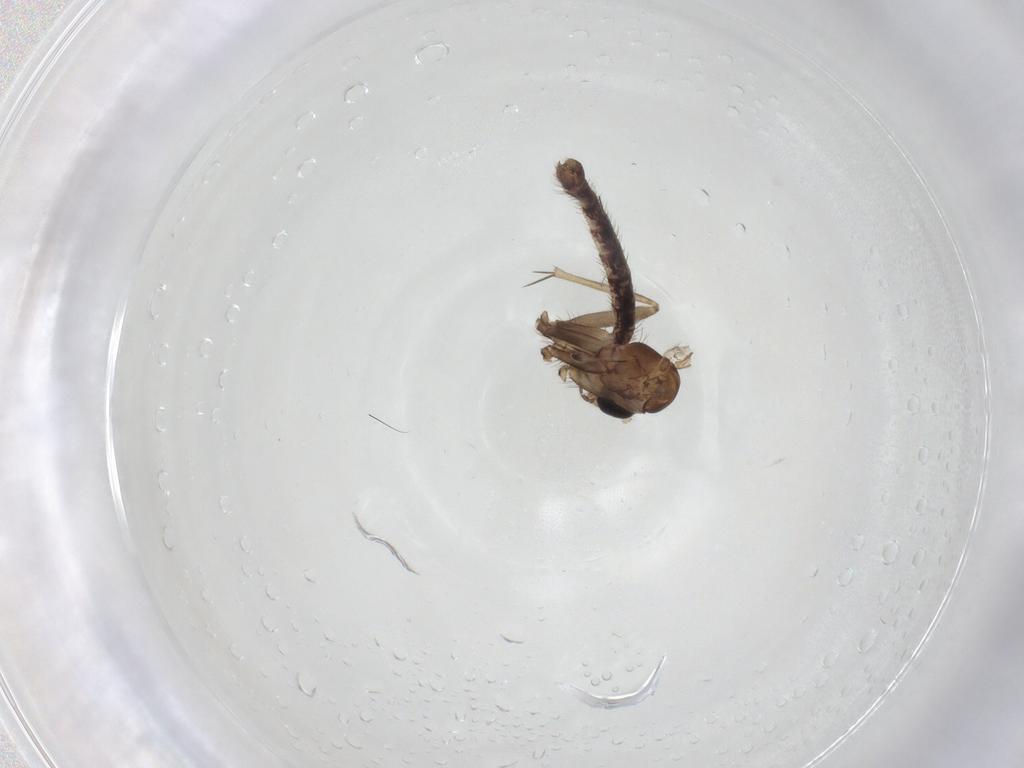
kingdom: Animalia
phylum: Arthropoda
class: Insecta
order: Diptera
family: Mycetophilidae
